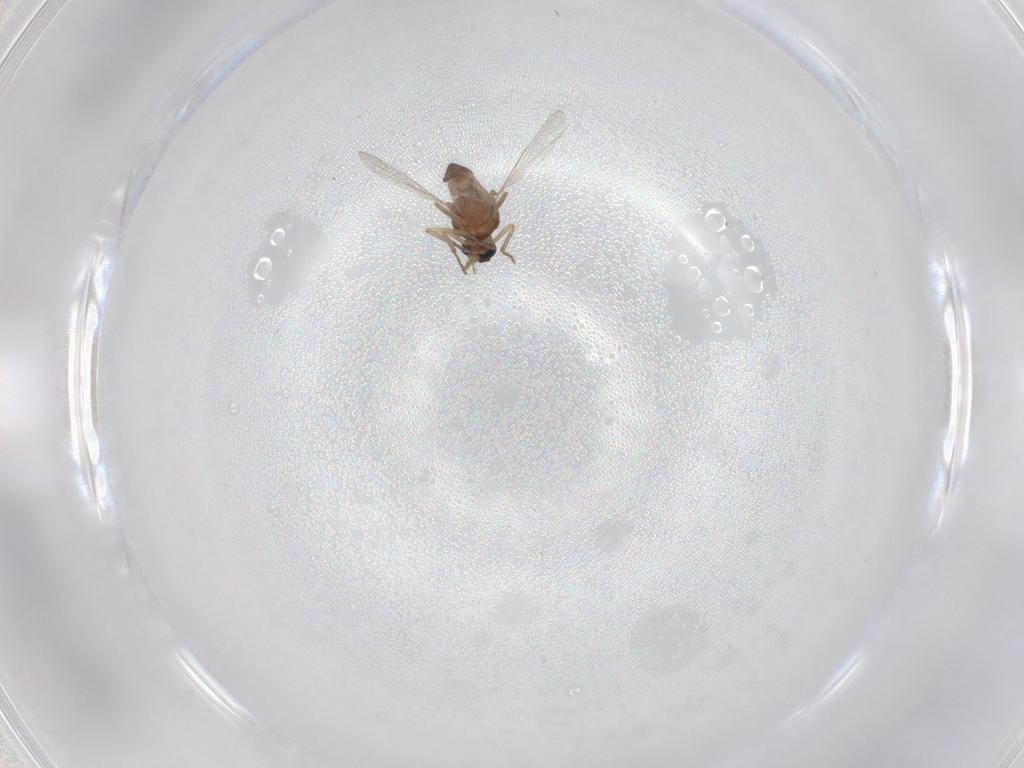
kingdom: Animalia
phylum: Arthropoda
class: Insecta
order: Diptera
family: Ceratopogonidae
